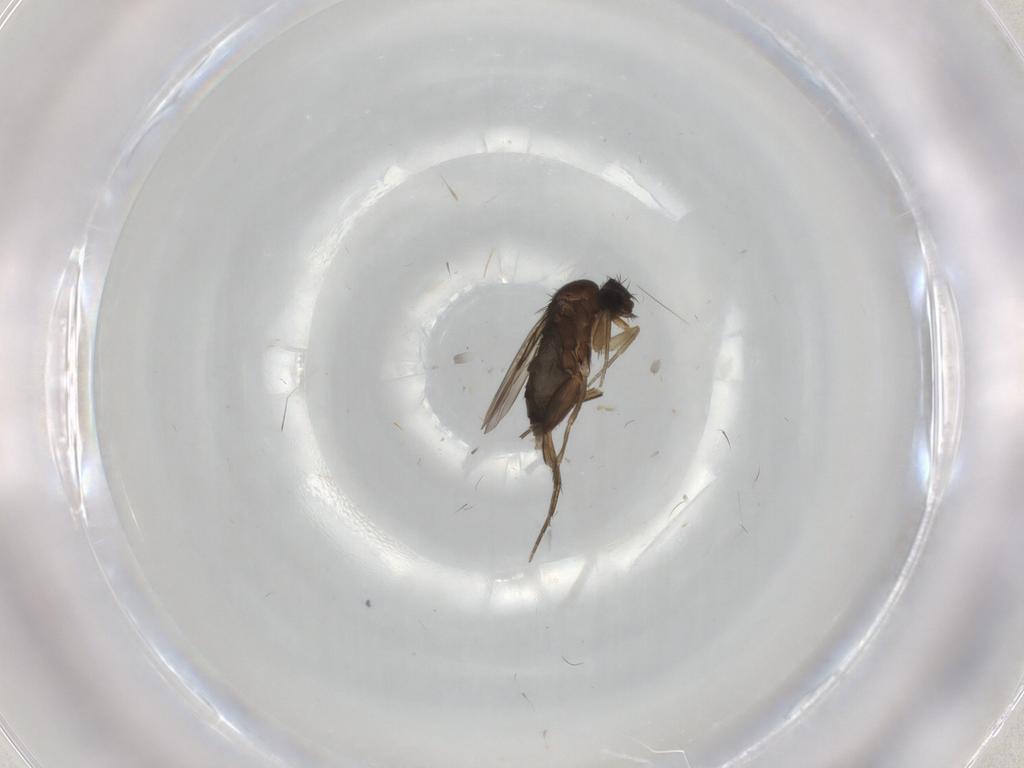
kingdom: Animalia
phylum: Arthropoda
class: Insecta
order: Diptera
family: Phoridae
